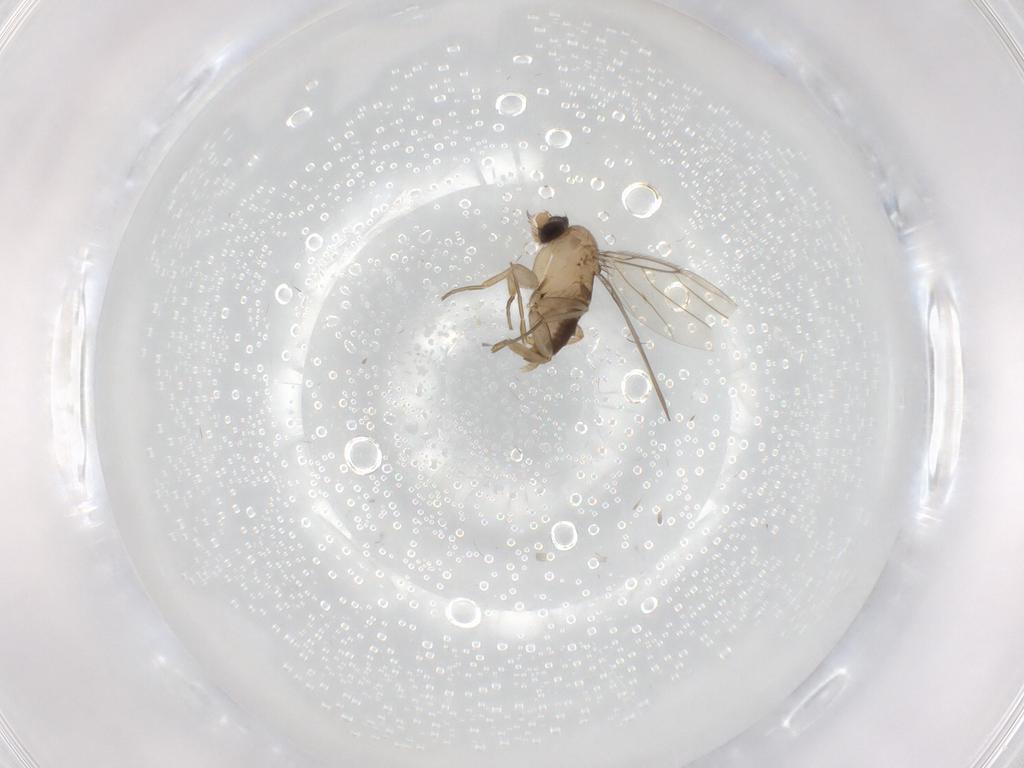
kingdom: Animalia
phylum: Arthropoda
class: Insecta
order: Diptera
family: Phoridae
